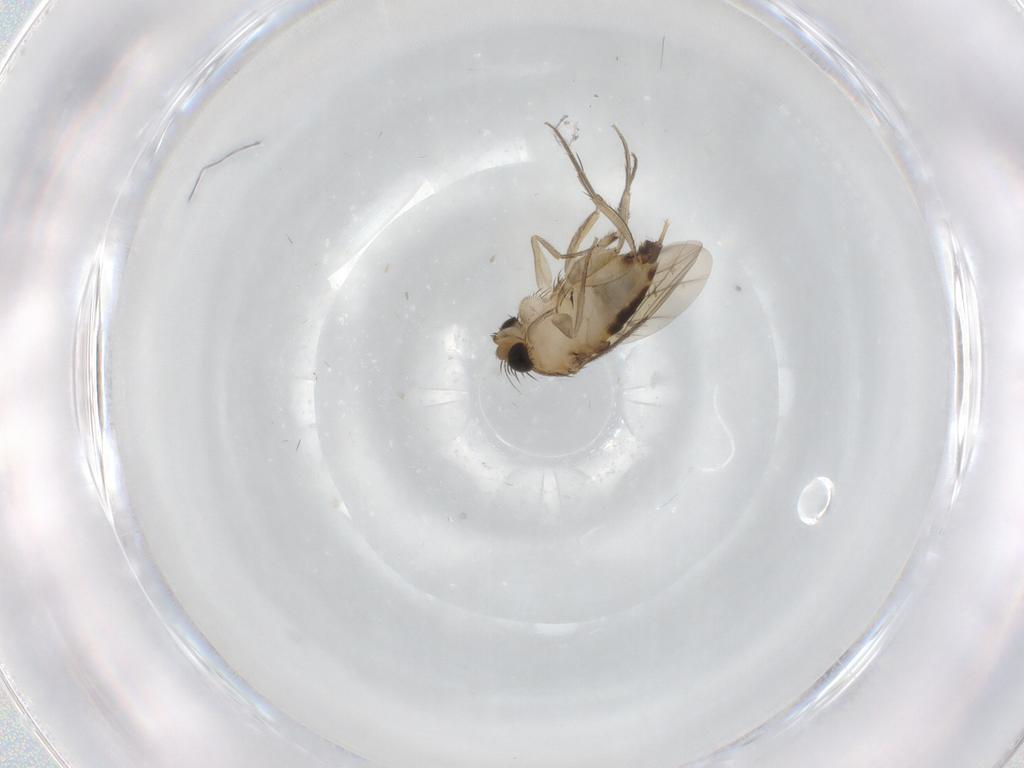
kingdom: Animalia
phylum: Arthropoda
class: Insecta
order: Diptera
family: Phoridae
